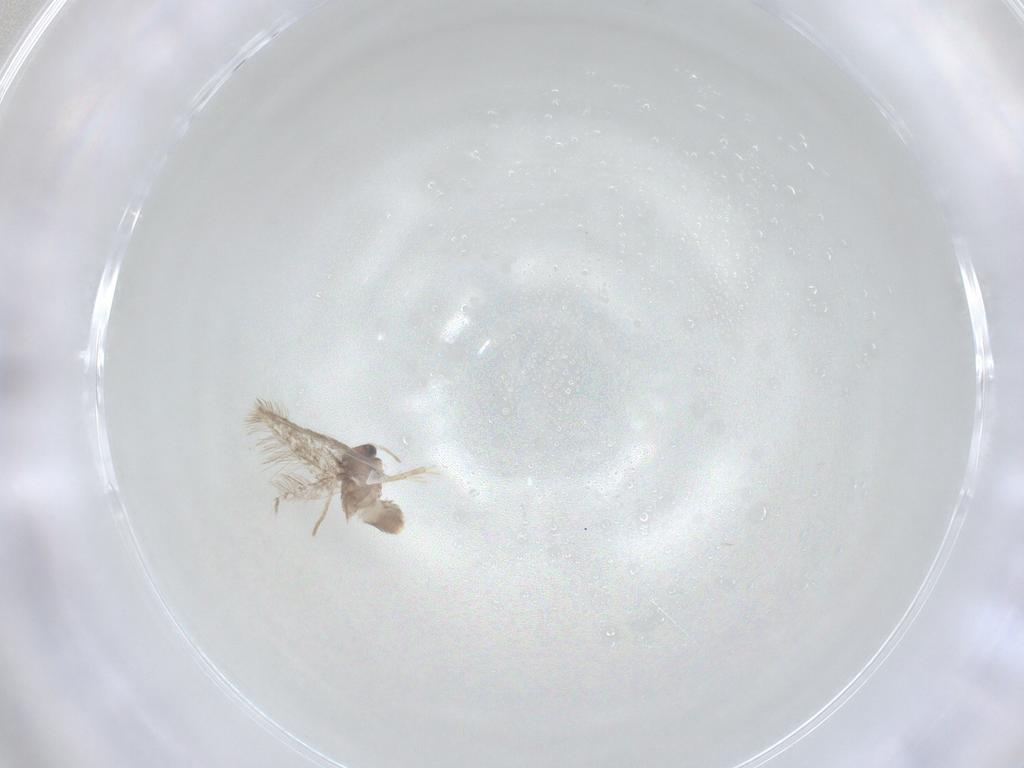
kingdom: Animalia
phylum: Arthropoda
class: Insecta
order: Lepidoptera
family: Nepticulidae
